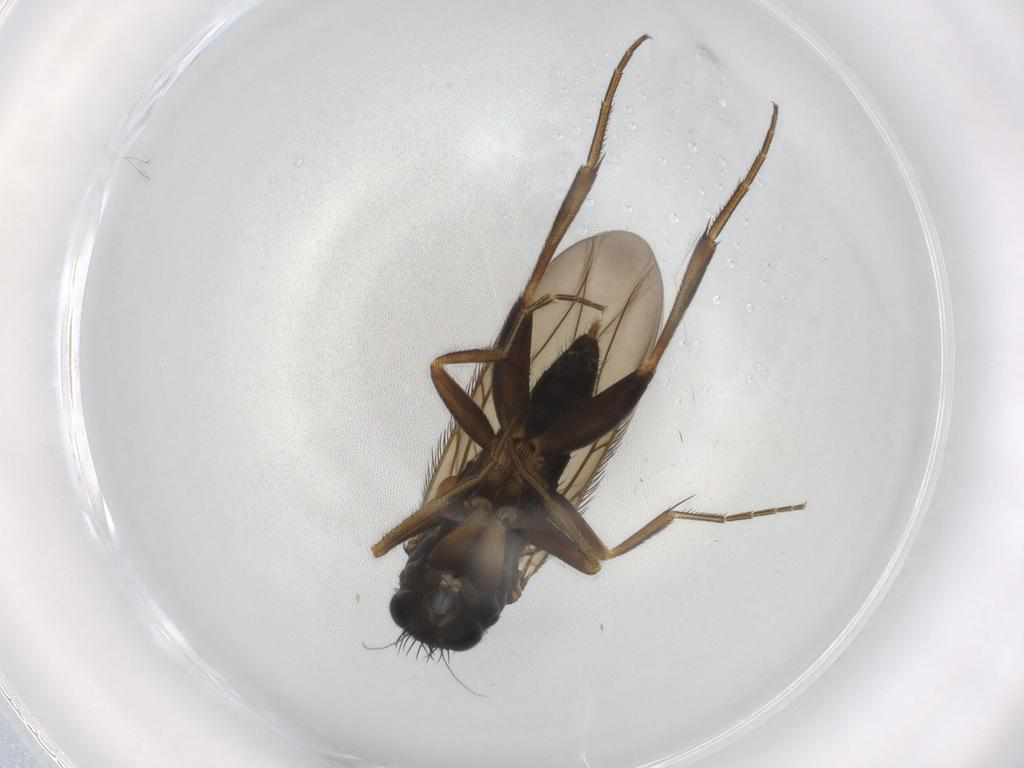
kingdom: Animalia
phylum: Arthropoda
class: Insecta
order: Diptera
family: Phoridae
